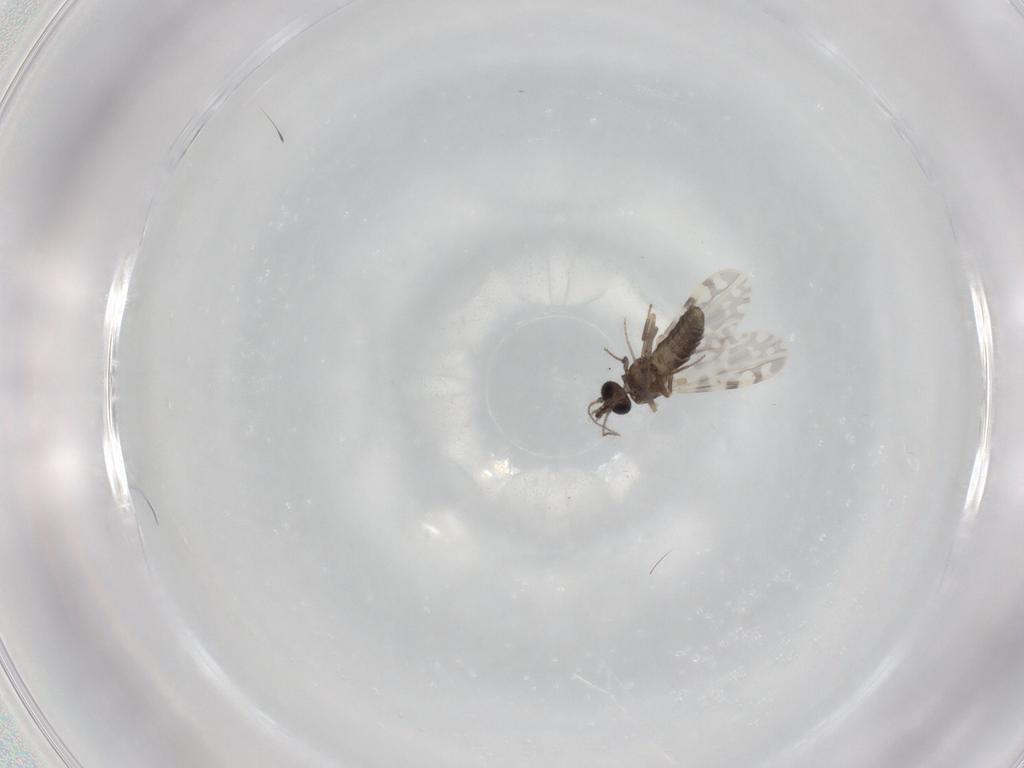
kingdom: Animalia
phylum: Arthropoda
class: Insecta
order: Diptera
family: Ceratopogonidae
